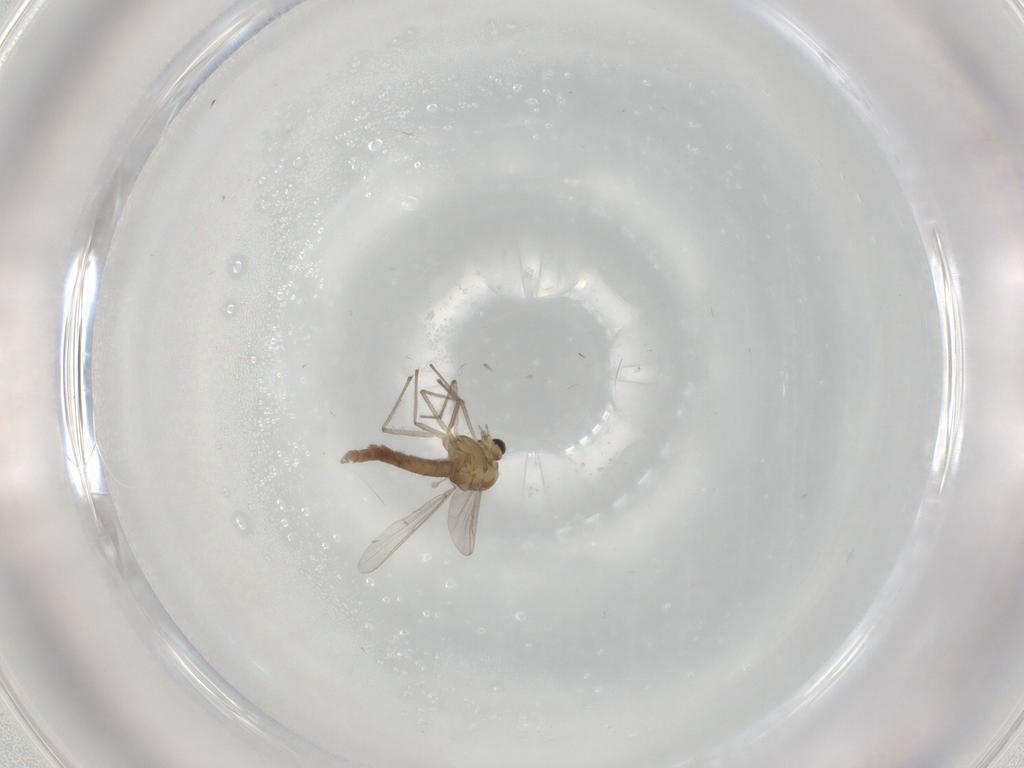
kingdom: Animalia
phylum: Arthropoda
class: Insecta
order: Diptera
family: Chironomidae
